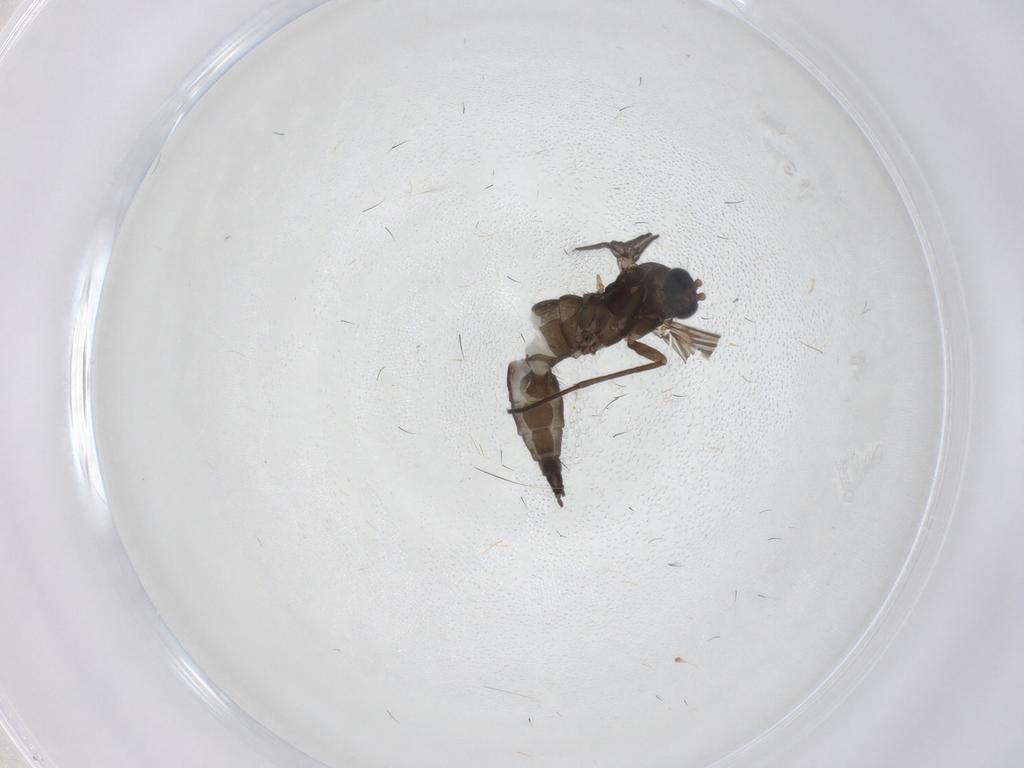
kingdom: Animalia
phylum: Arthropoda
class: Insecta
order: Diptera
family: Sciaridae
